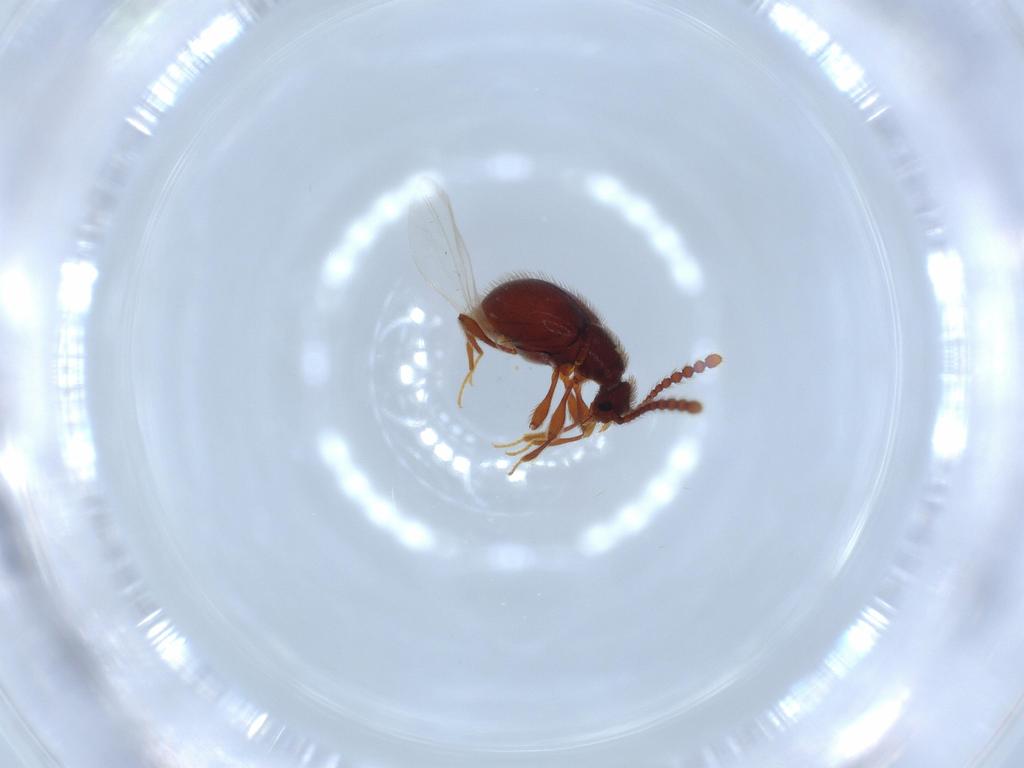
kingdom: Animalia
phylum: Arthropoda
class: Insecta
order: Coleoptera
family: Staphylinidae
